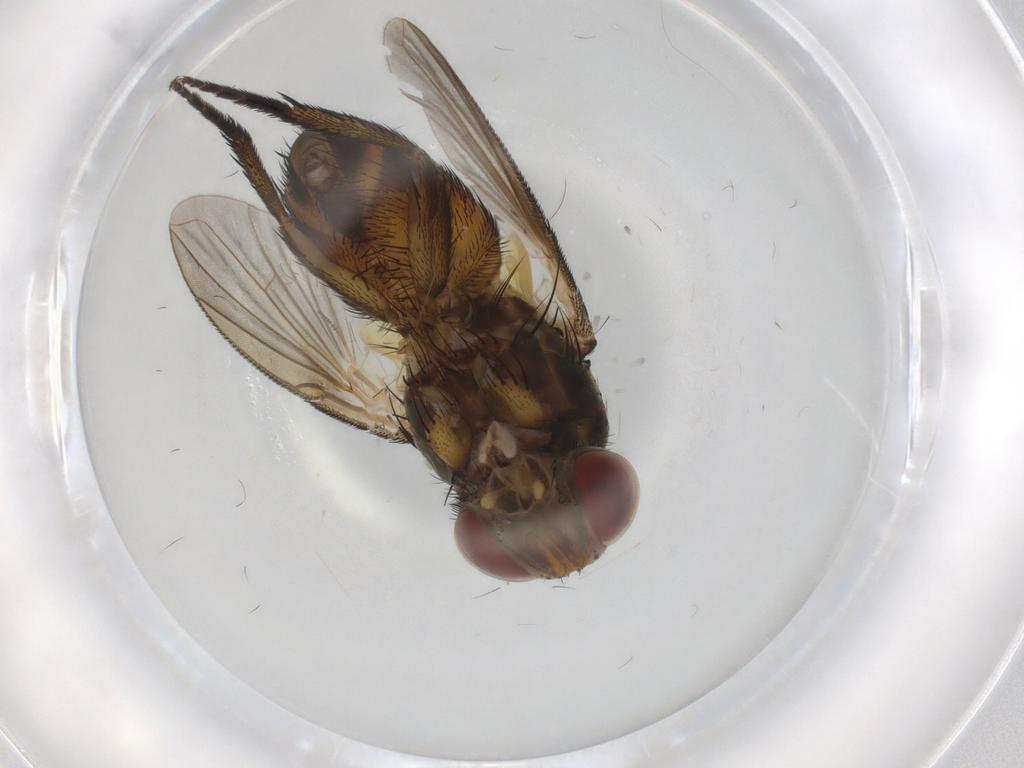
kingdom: Animalia
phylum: Arthropoda
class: Insecta
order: Diptera
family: Tachinidae
